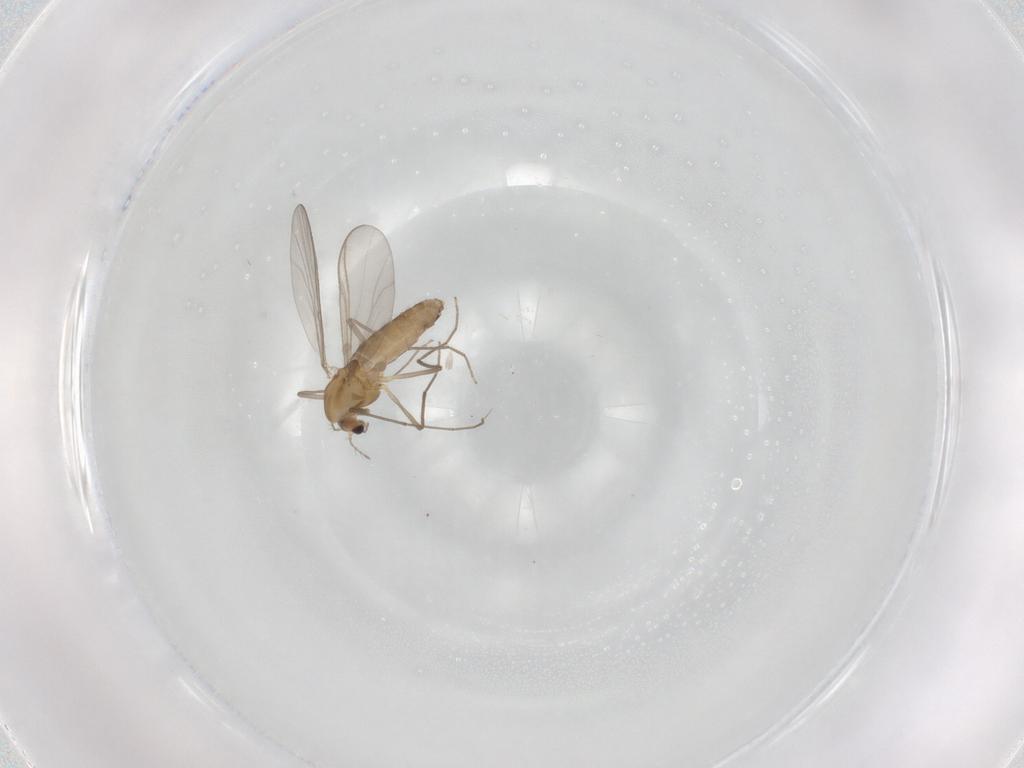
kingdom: Animalia
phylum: Arthropoda
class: Insecta
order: Diptera
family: Chironomidae
